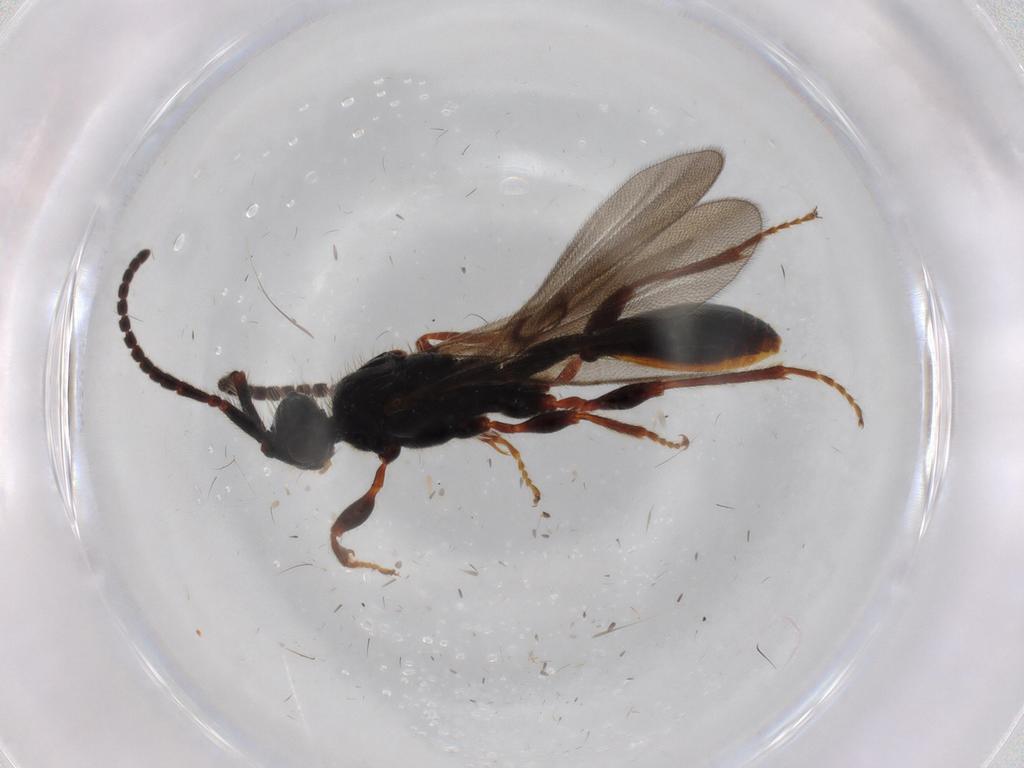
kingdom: Animalia
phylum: Arthropoda
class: Insecta
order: Hymenoptera
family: Diapriidae
